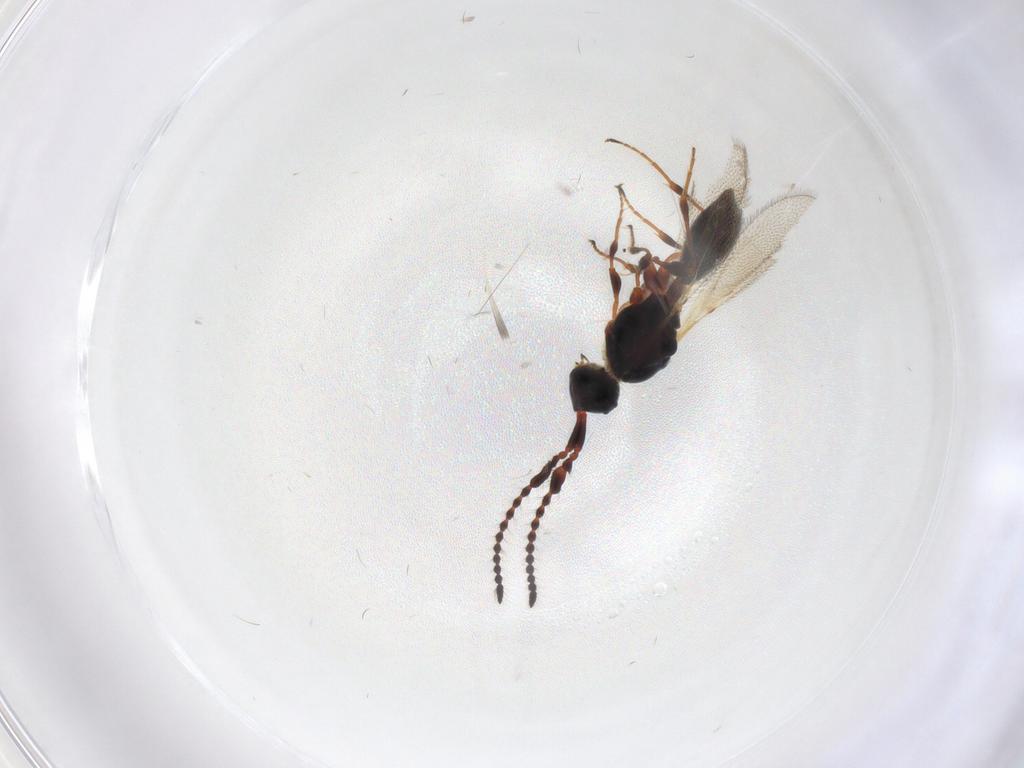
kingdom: Animalia
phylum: Arthropoda
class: Insecta
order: Hymenoptera
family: Diapriidae
